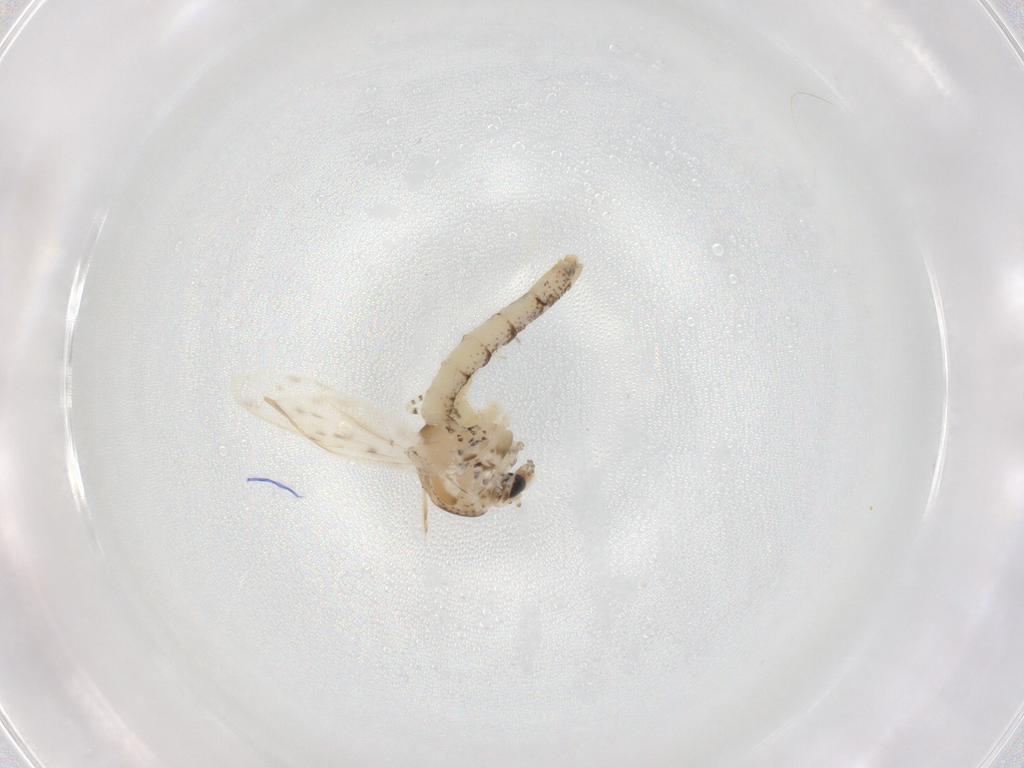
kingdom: Animalia
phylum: Arthropoda
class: Insecta
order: Diptera
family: Chaoboridae
